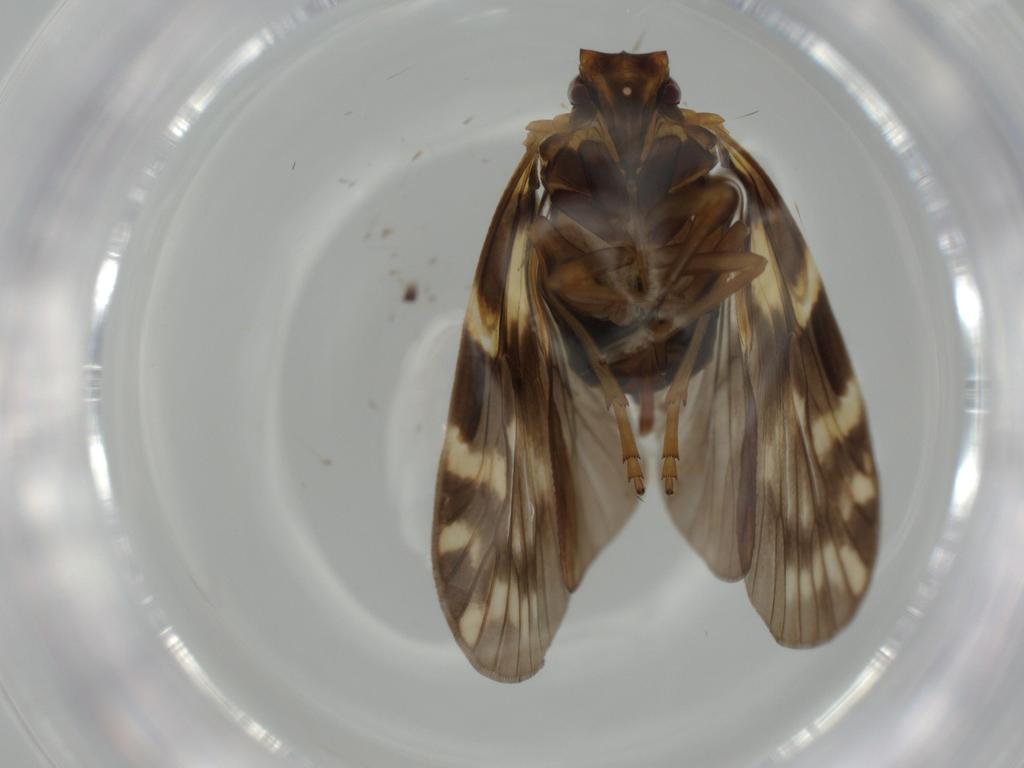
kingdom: Animalia
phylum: Arthropoda
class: Insecta
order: Hemiptera
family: Cixiidae
